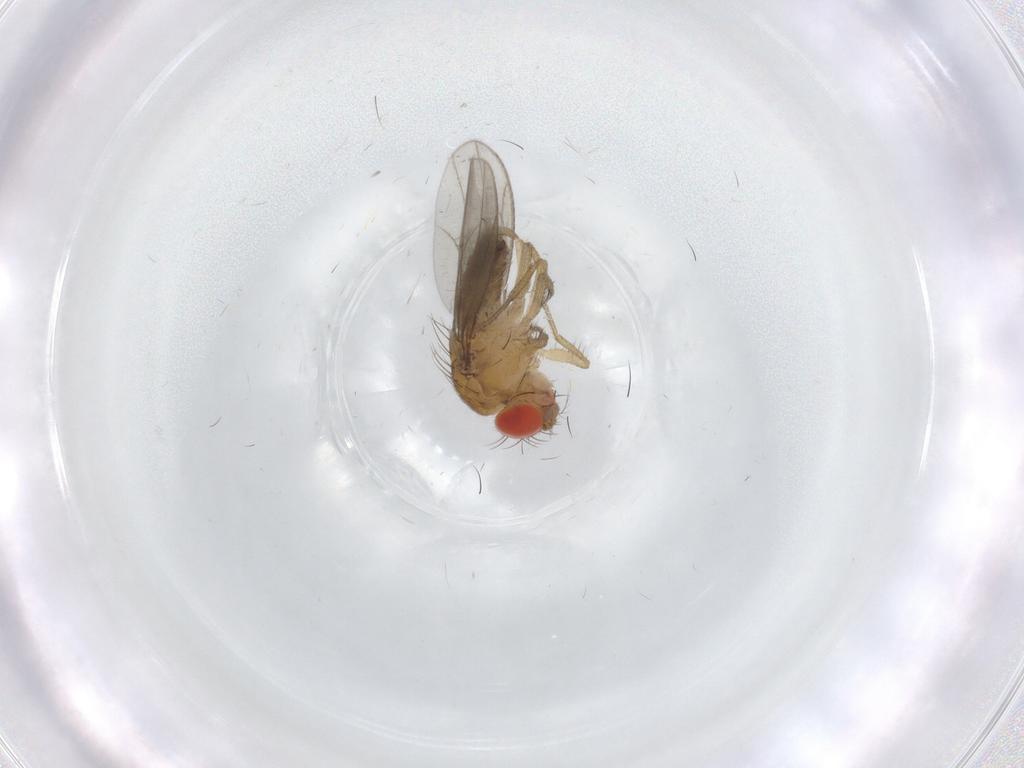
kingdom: Animalia
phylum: Arthropoda
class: Insecta
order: Diptera
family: Drosophilidae
